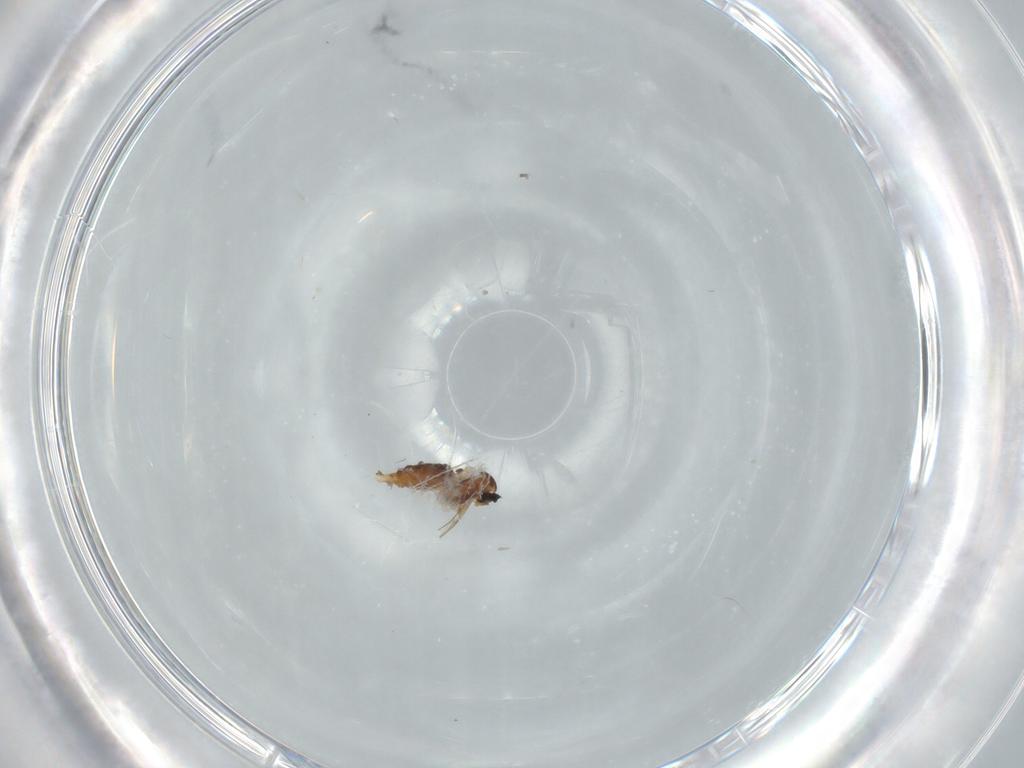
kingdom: Animalia
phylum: Arthropoda
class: Insecta
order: Diptera
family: Cecidomyiidae
